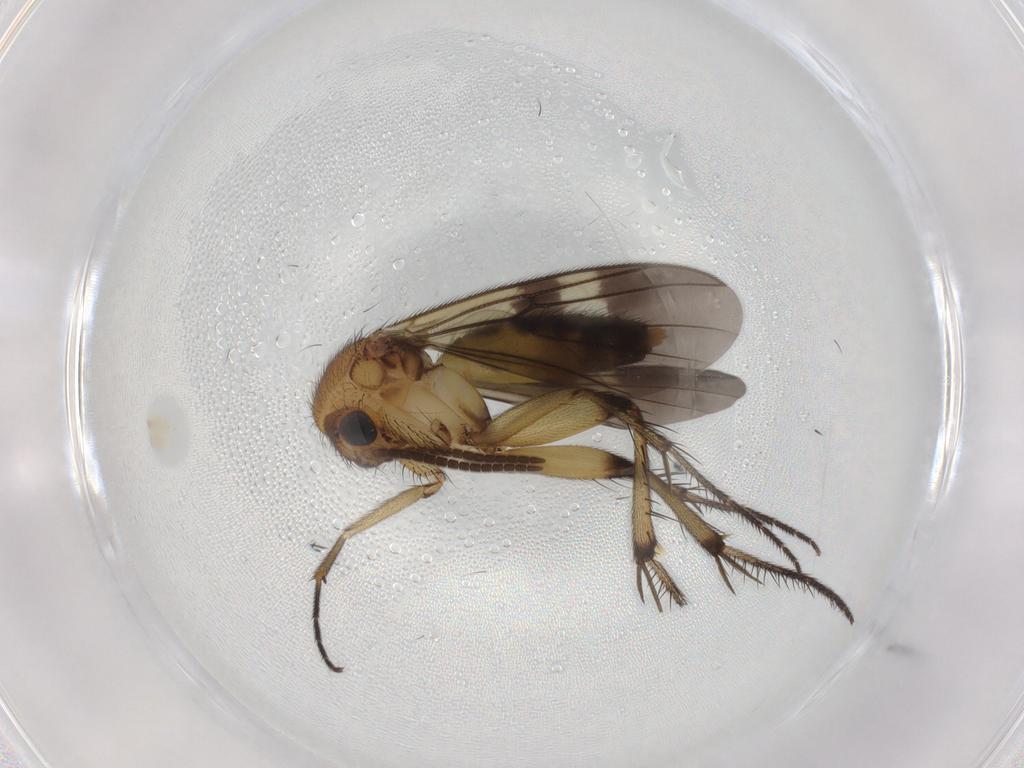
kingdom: Animalia
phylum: Arthropoda
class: Insecta
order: Diptera
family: Mycetophilidae
